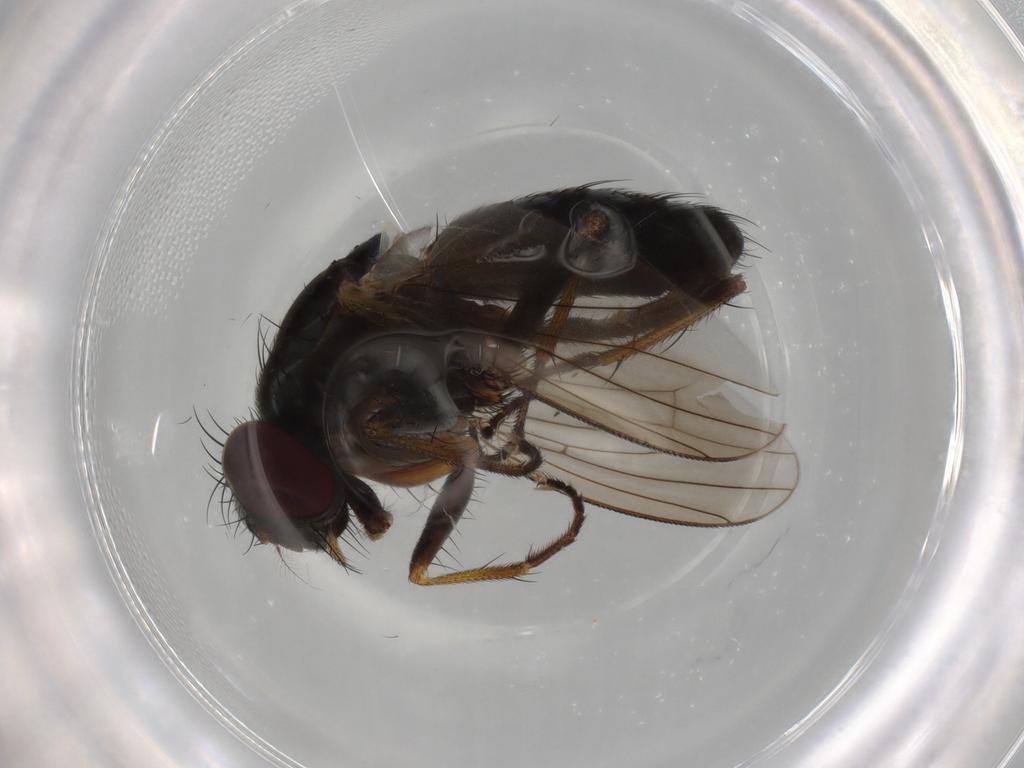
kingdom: Animalia
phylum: Arthropoda
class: Insecta
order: Diptera
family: Muscidae
